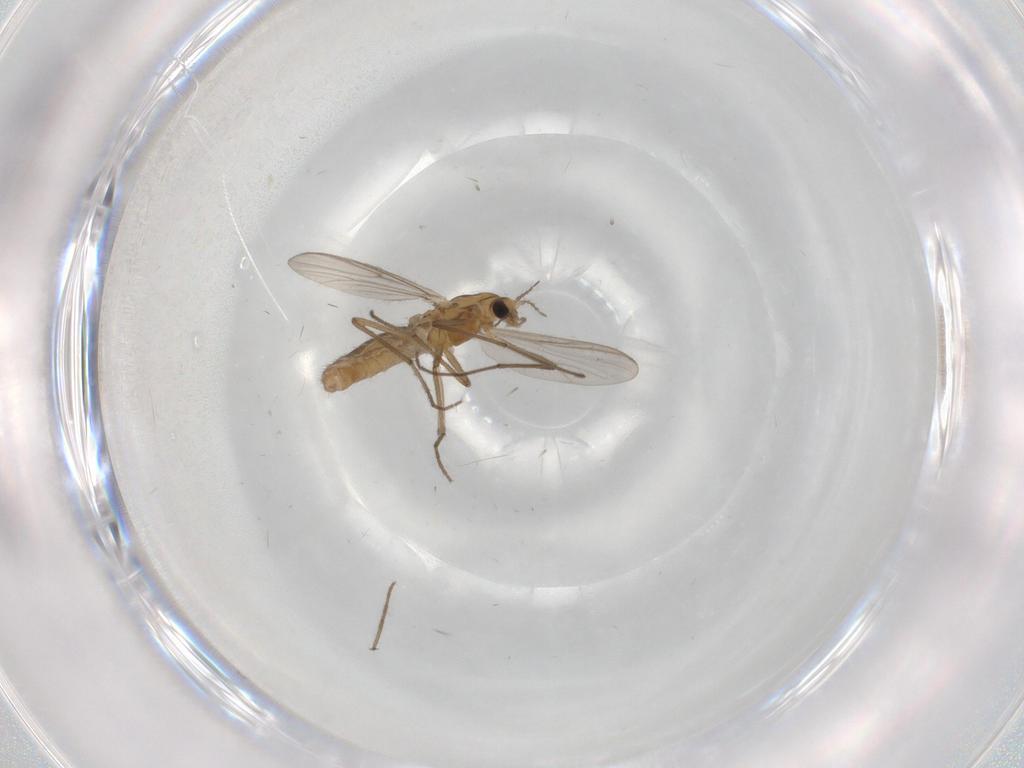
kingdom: Animalia
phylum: Arthropoda
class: Insecta
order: Diptera
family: Chironomidae
